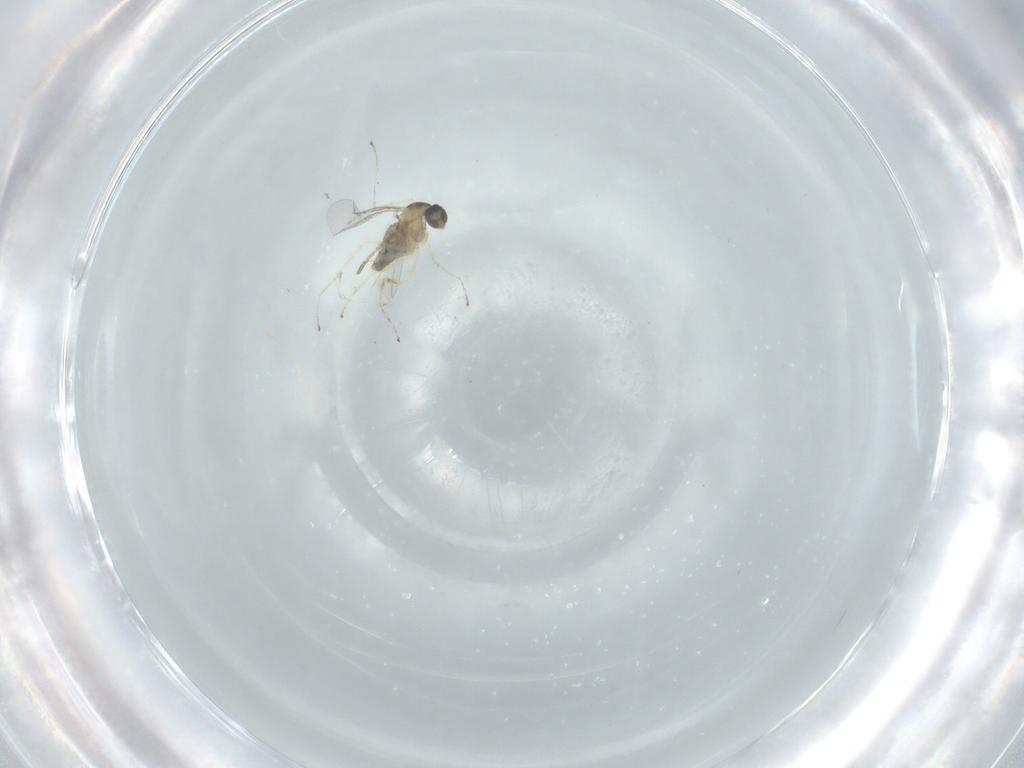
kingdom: Animalia
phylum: Arthropoda
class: Insecta
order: Diptera
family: Cecidomyiidae
